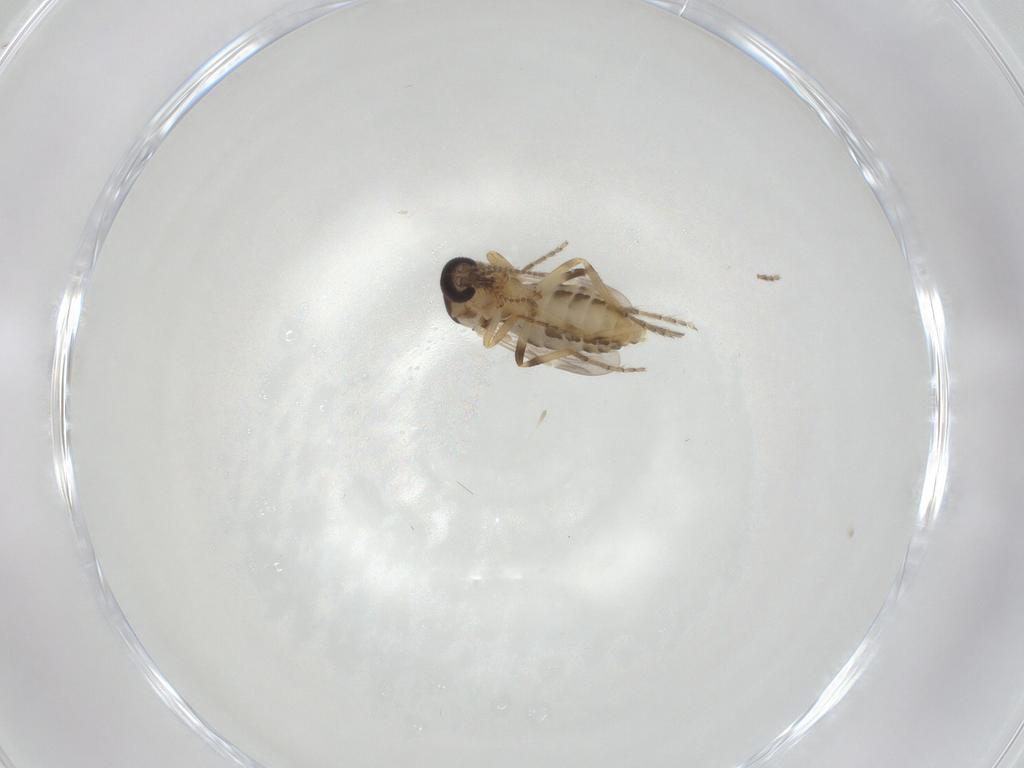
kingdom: Animalia
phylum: Arthropoda
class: Insecta
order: Diptera
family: Ceratopogonidae
